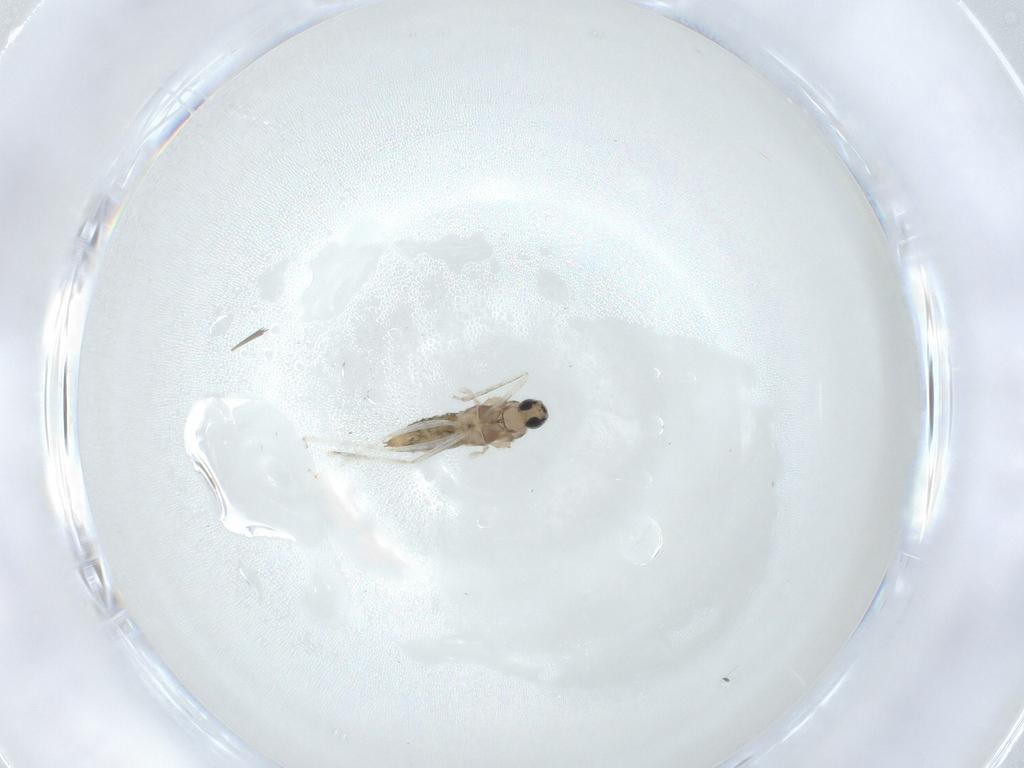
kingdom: Animalia
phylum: Arthropoda
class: Insecta
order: Diptera
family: Cecidomyiidae
